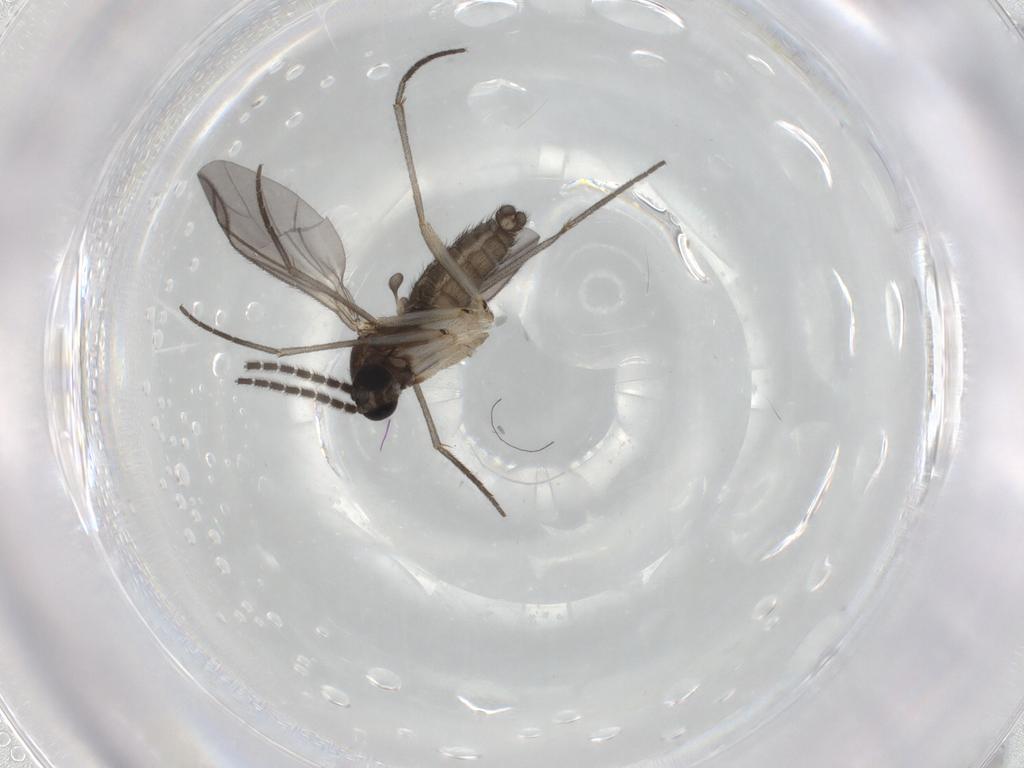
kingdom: Animalia
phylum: Arthropoda
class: Insecta
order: Diptera
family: Sciaridae
